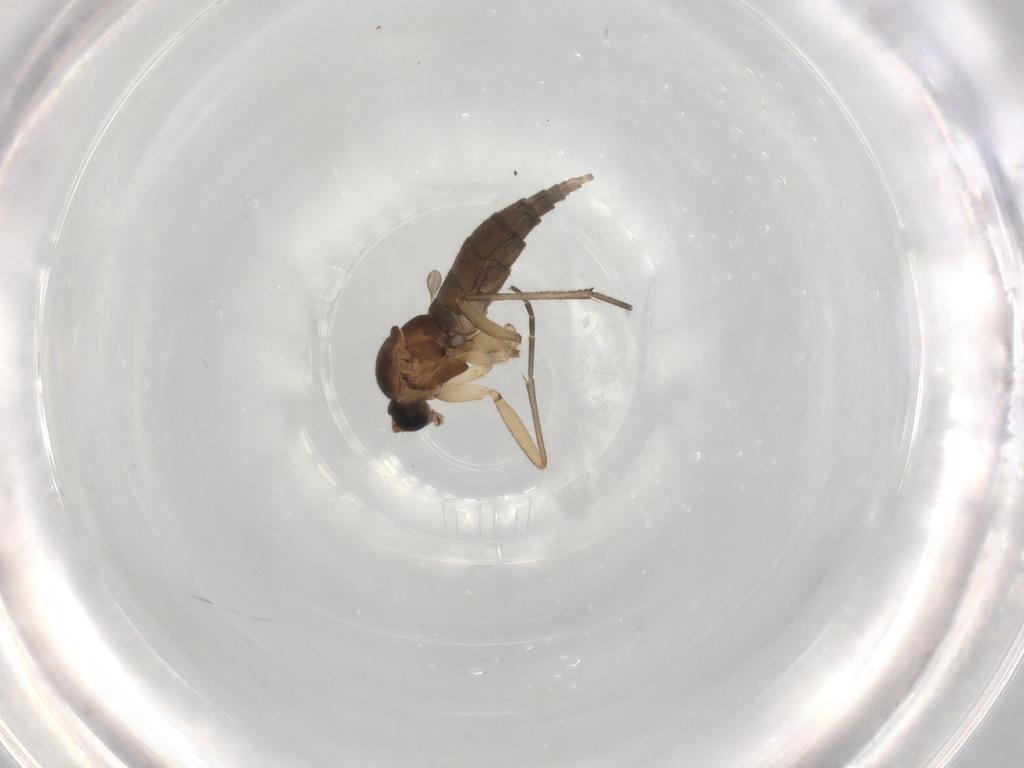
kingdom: Animalia
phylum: Arthropoda
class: Insecta
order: Diptera
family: Sciaridae
